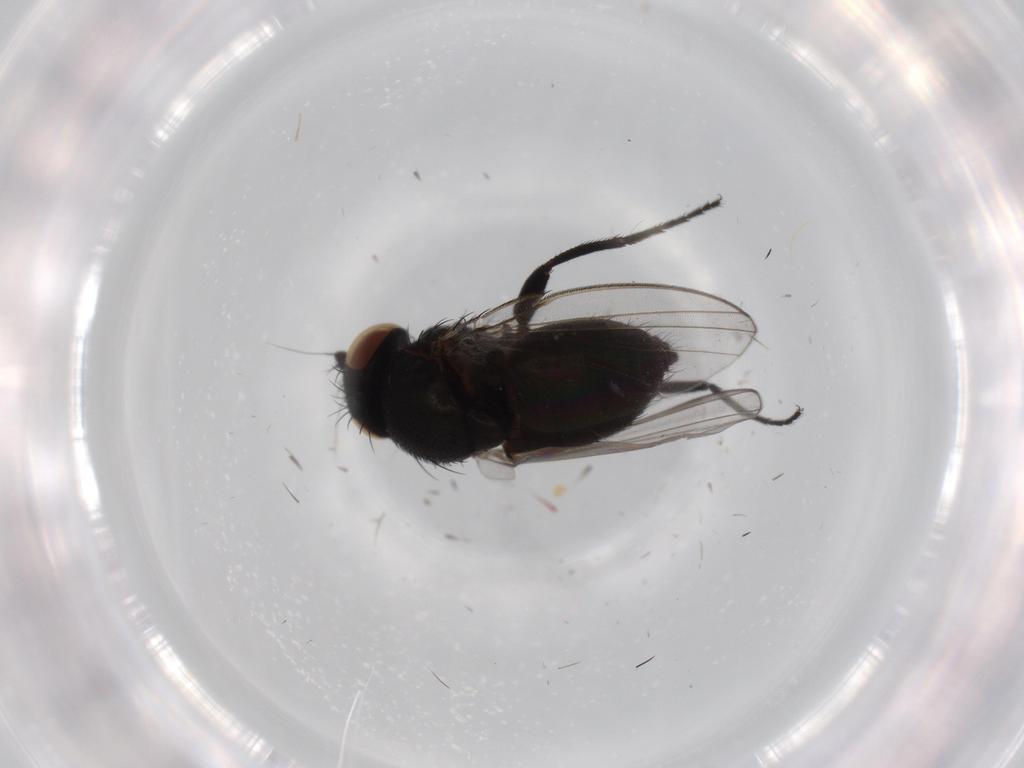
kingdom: Animalia
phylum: Arthropoda
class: Insecta
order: Diptera
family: Milichiidae
